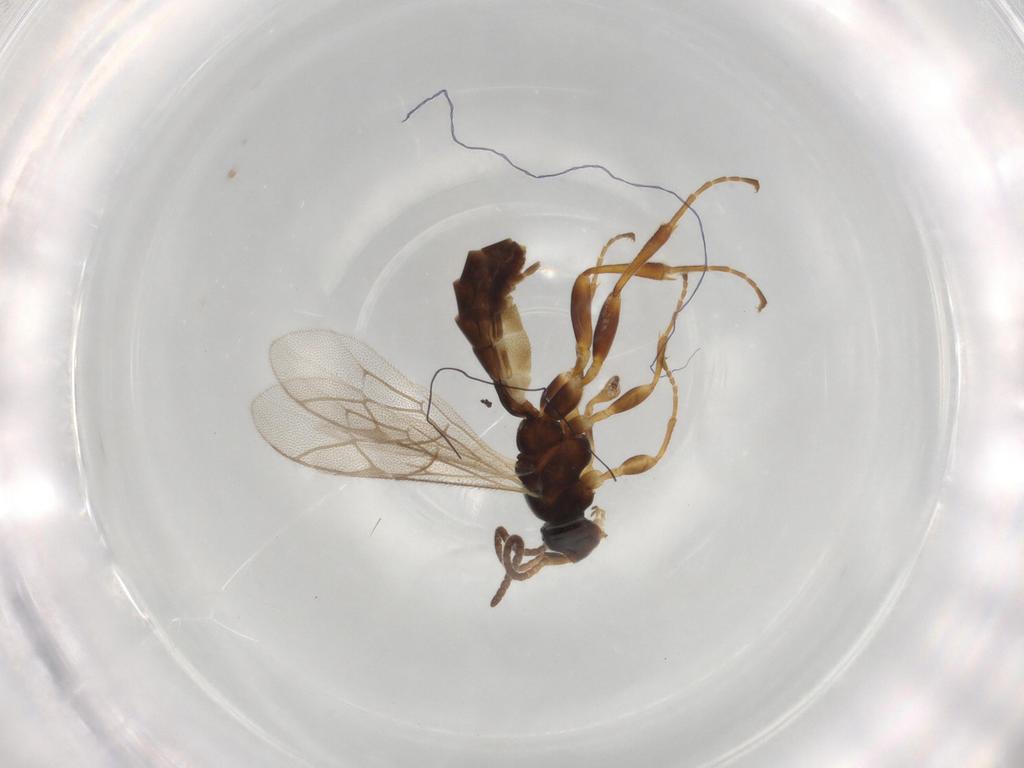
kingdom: Animalia
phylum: Arthropoda
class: Insecta
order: Hymenoptera
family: Ichneumonidae
